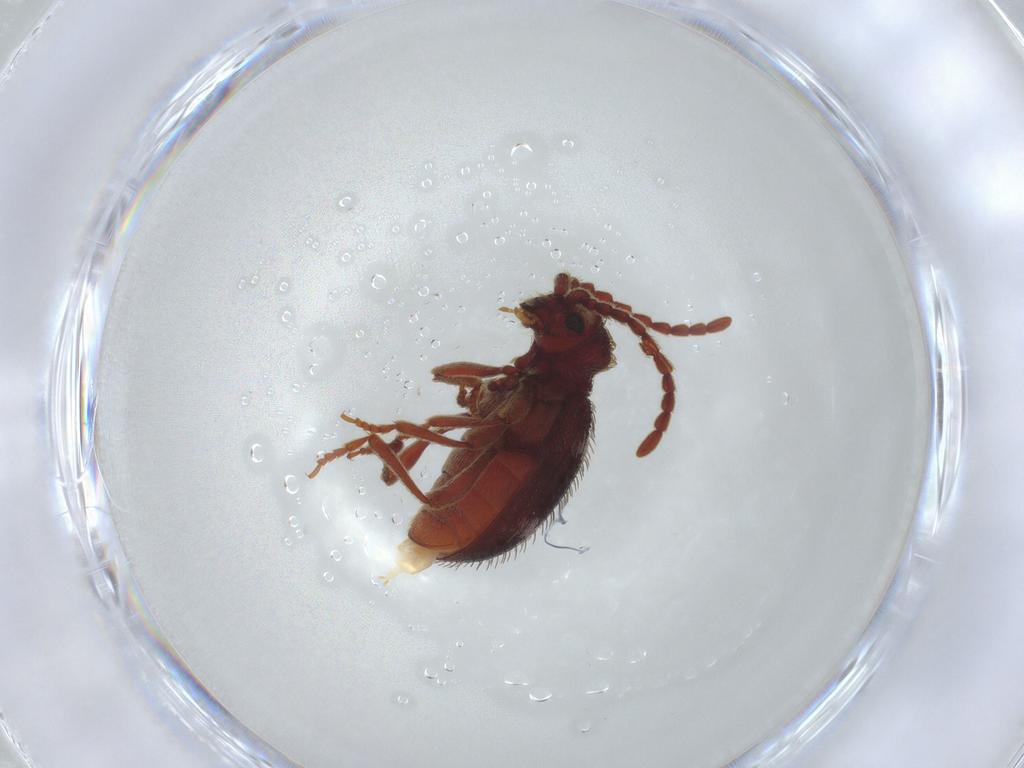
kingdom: Animalia
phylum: Arthropoda
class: Insecta
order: Coleoptera
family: Ptinidae
